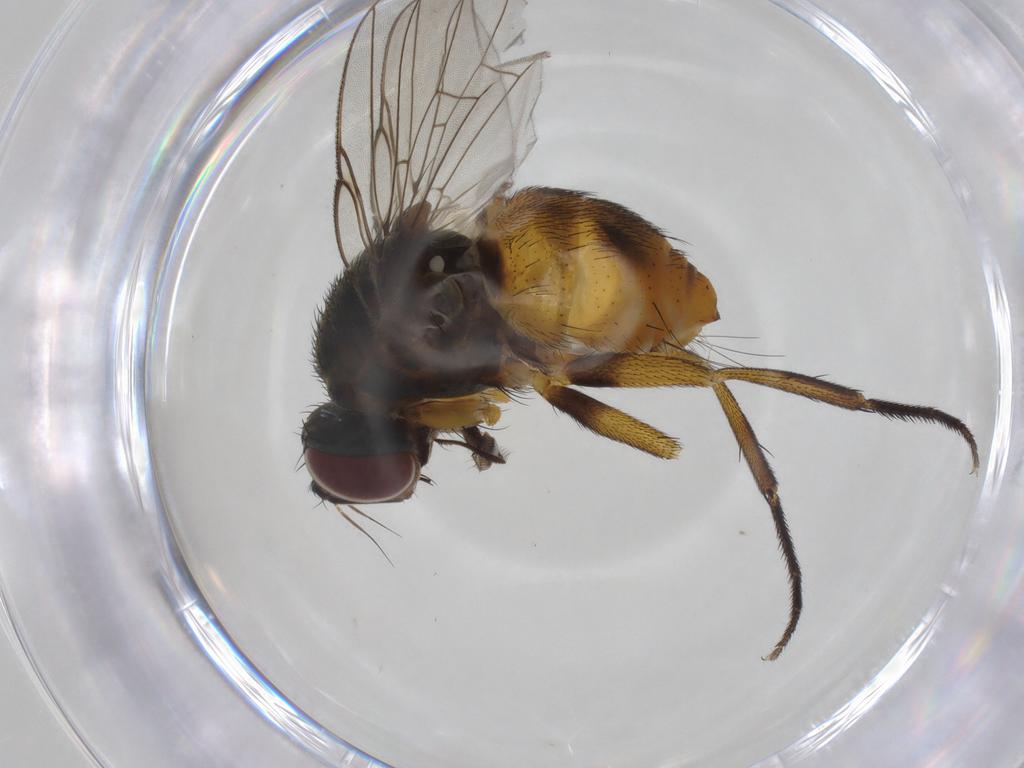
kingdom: Animalia
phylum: Arthropoda
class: Insecta
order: Diptera
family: Muscidae
